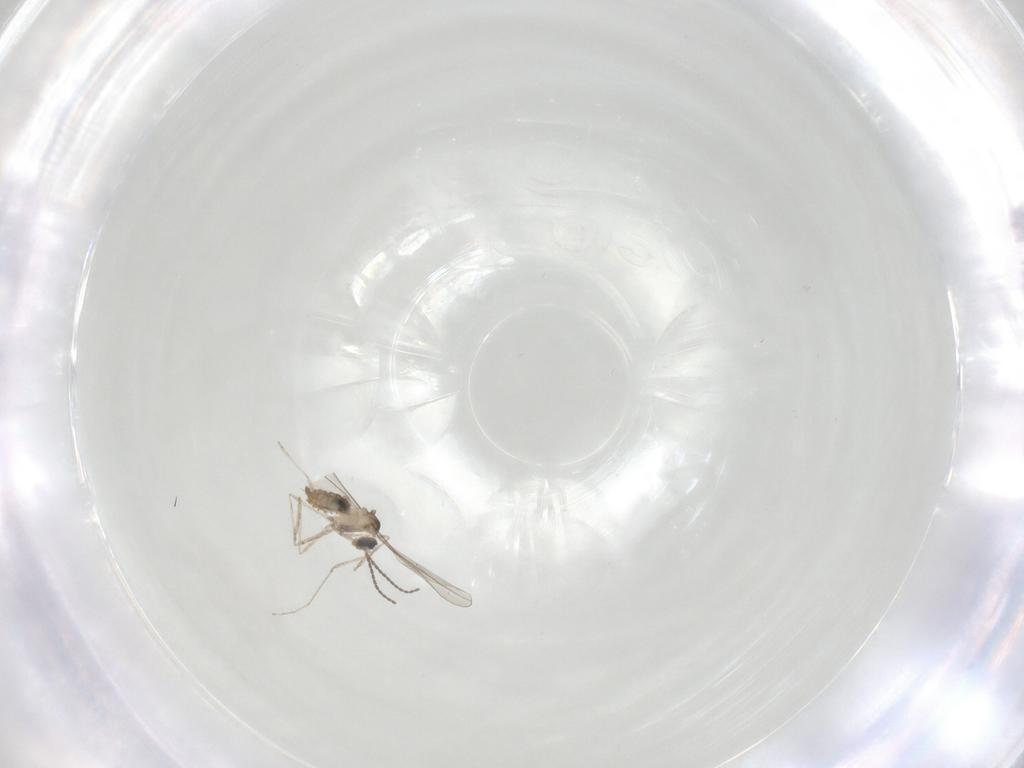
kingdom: Animalia
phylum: Arthropoda
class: Insecta
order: Diptera
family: Cecidomyiidae
